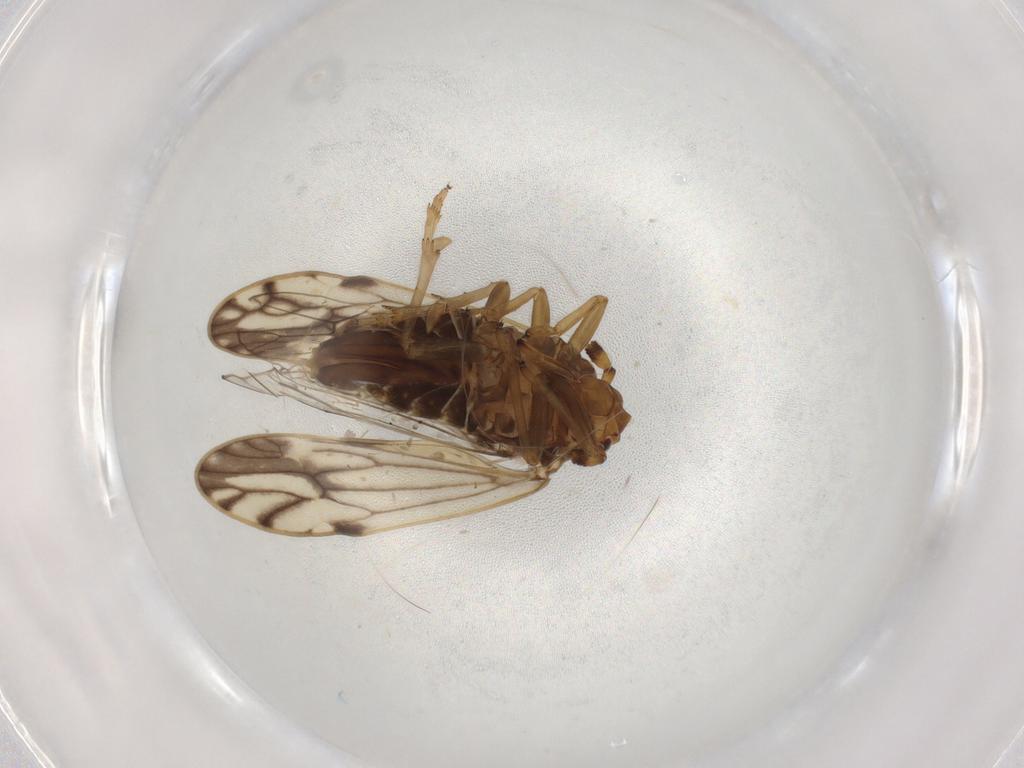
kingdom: Animalia
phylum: Arthropoda
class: Insecta
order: Hemiptera
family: Delphacidae
